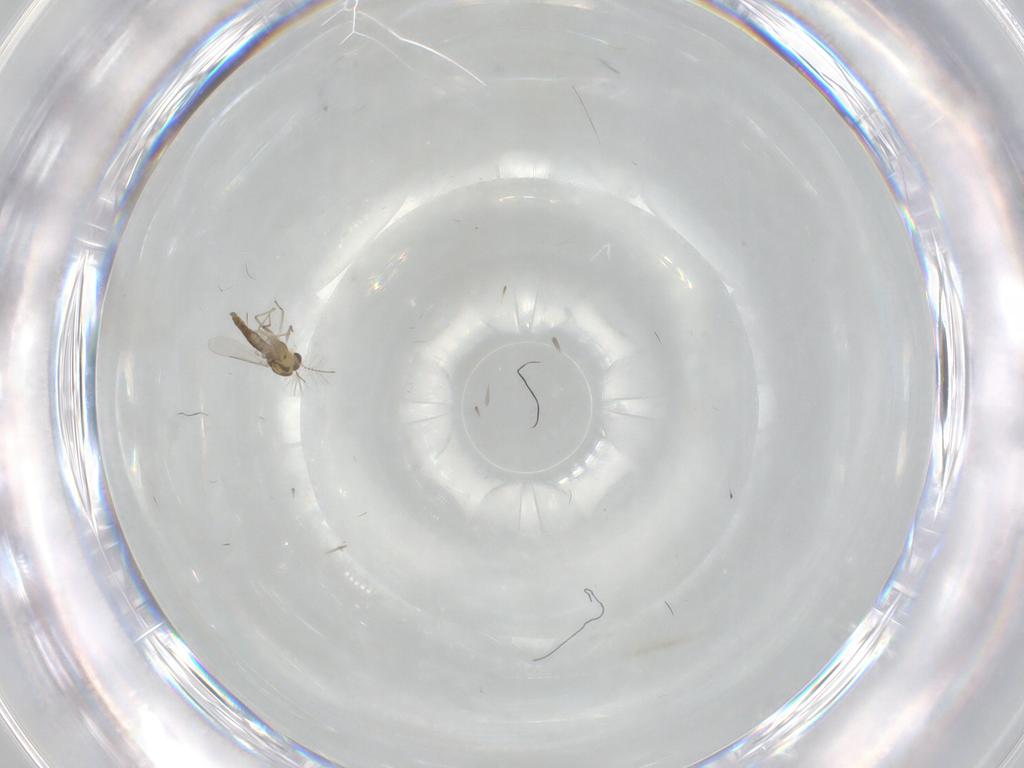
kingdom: Animalia
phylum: Arthropoda
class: Insecta
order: Diptera
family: Chironomidae
